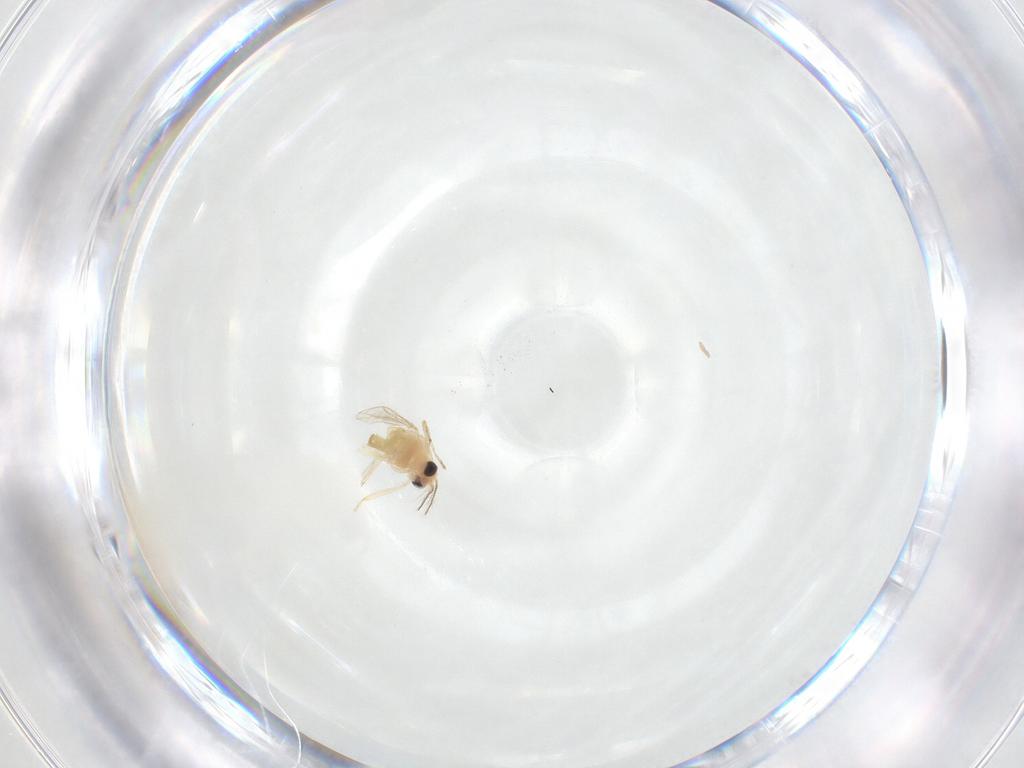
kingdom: Animalia
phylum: Arthropoda
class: Insecta
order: Diptera
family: Chironomidae
